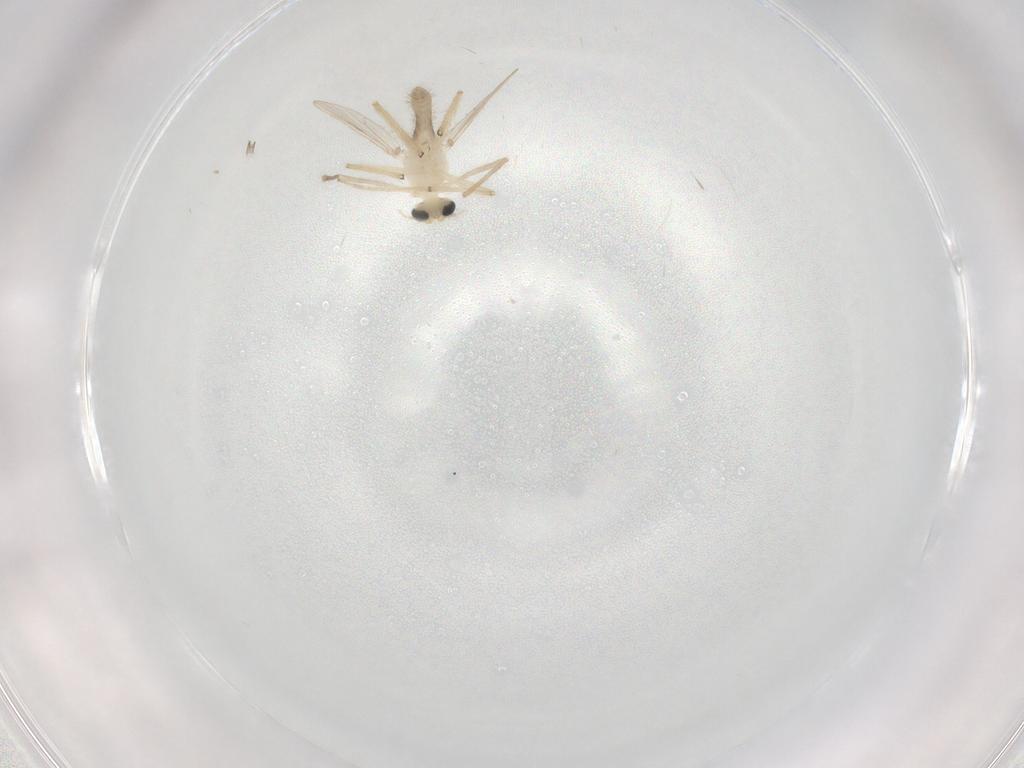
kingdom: Animalia
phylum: Arthropoda
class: Insecta
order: Diptera
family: Chironomidae
